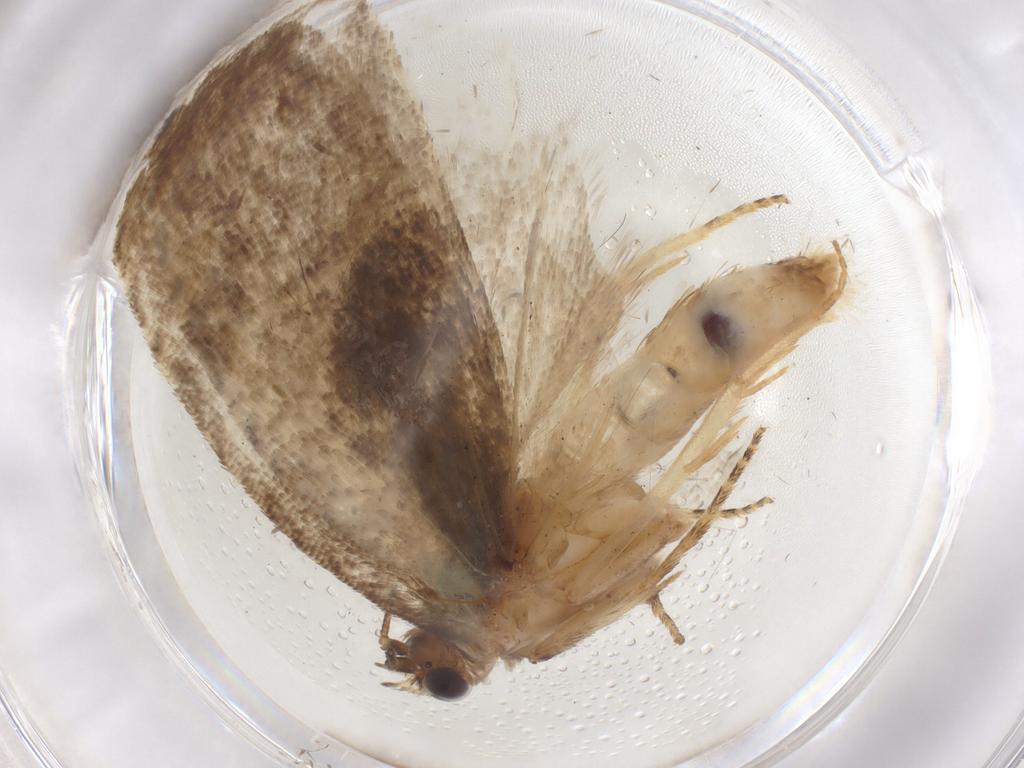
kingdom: Animalia
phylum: Arthropoda
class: Insecta
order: Lepidoptera
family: Tortricidae
